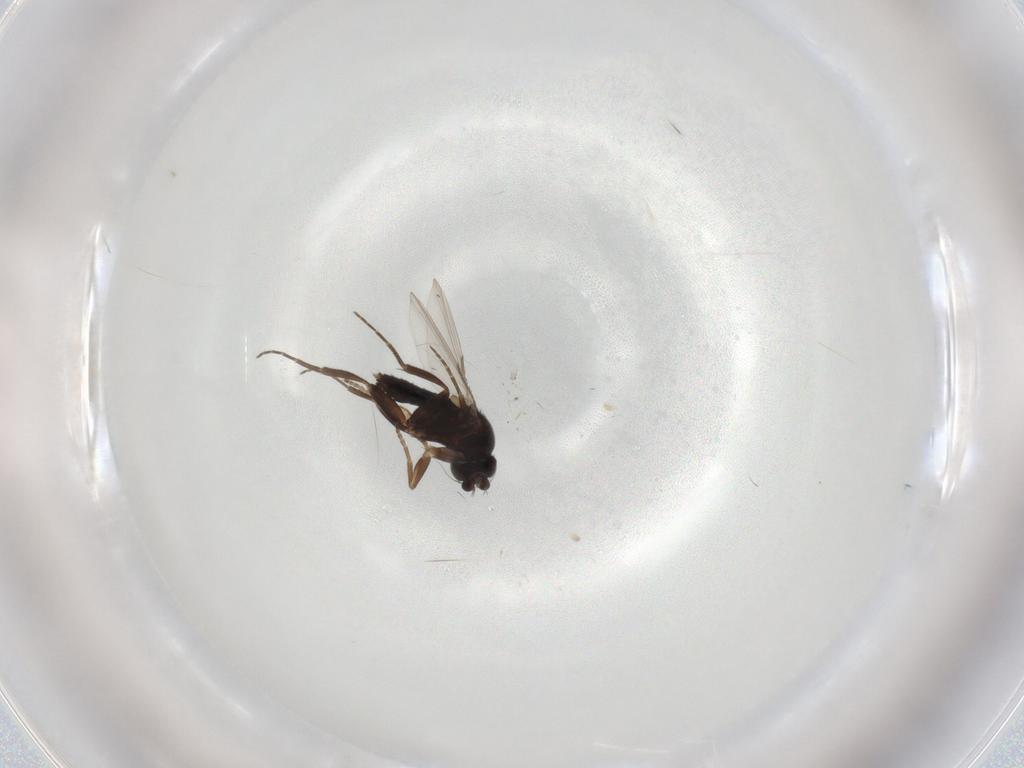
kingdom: Animalia
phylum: Arthropoda
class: Insecta
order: Diptera
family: Phoridae
